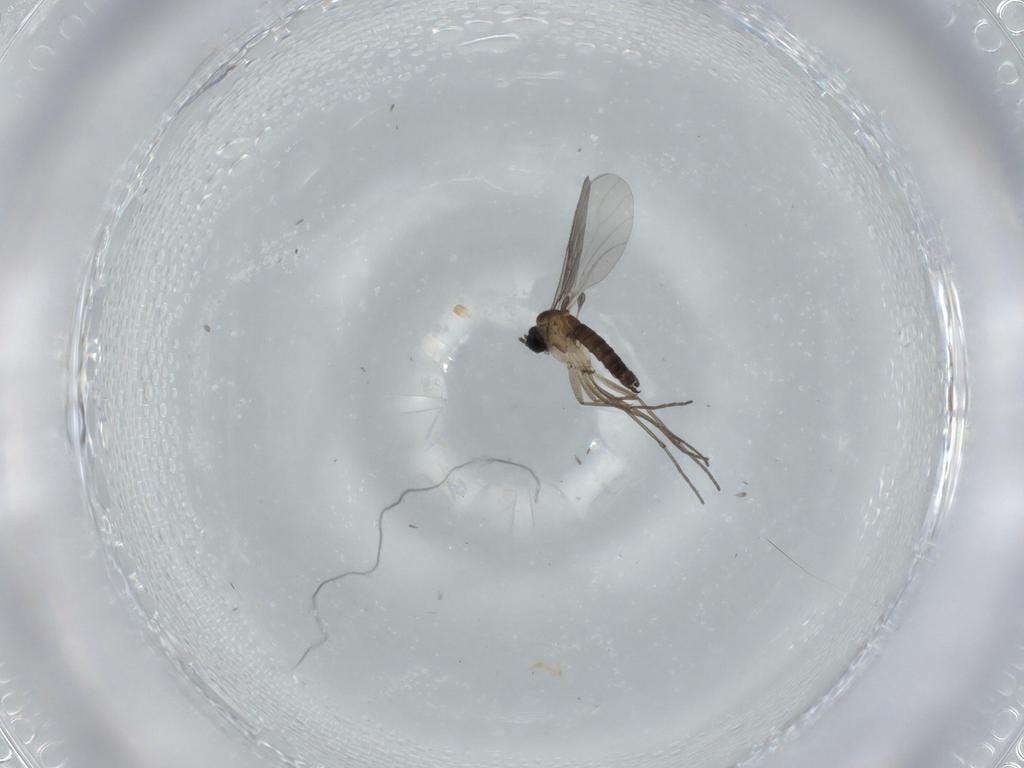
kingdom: Animalia
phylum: Arthropoda
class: Insecta
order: Diptera
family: Sciaridae
